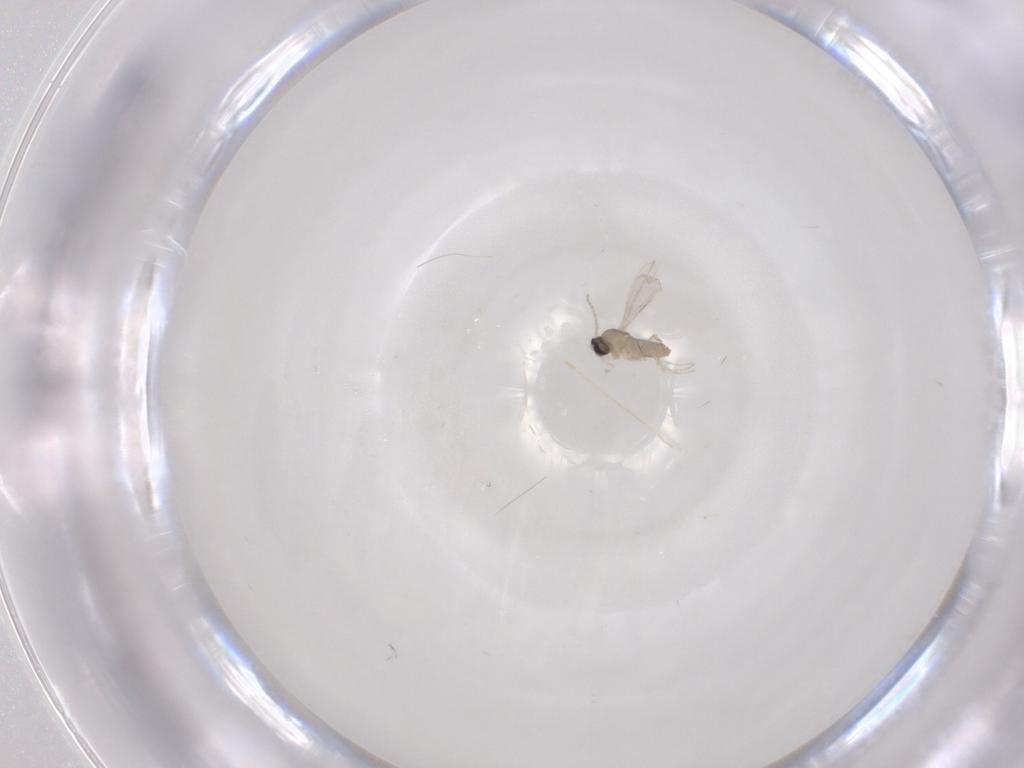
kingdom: Animalia
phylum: Arthropoda
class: Insecta
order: Diptera
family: Cecidomyiidae
